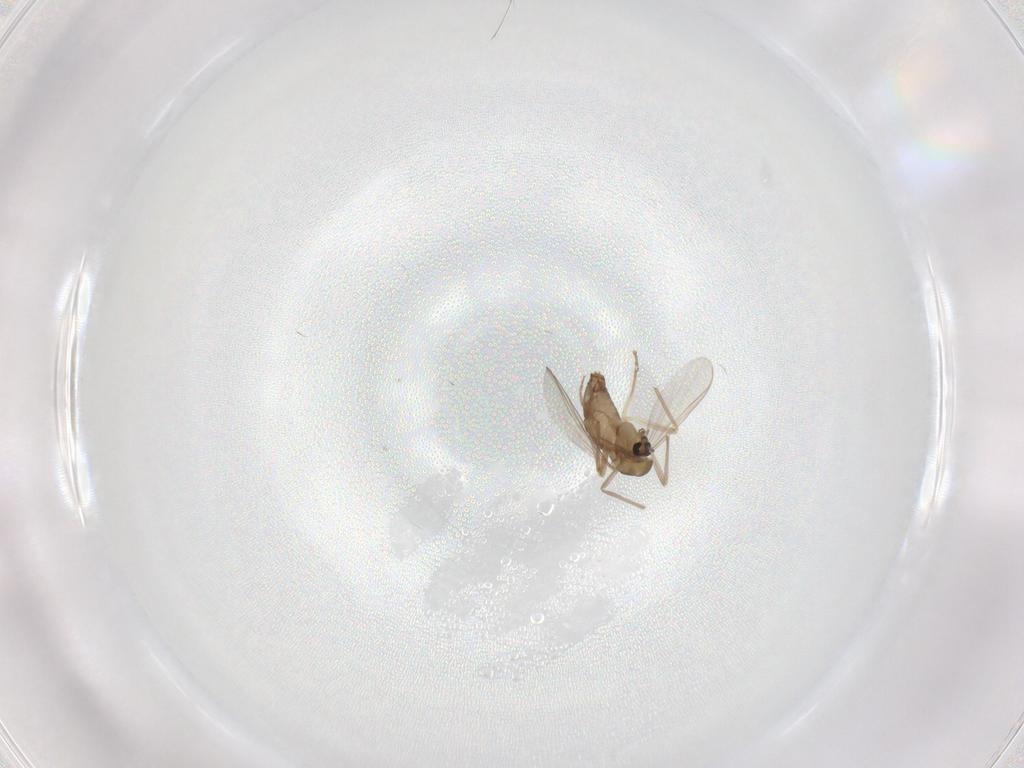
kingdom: Animalia
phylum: Arthropoda
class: Insecta
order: Diptera
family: Chironomidae
